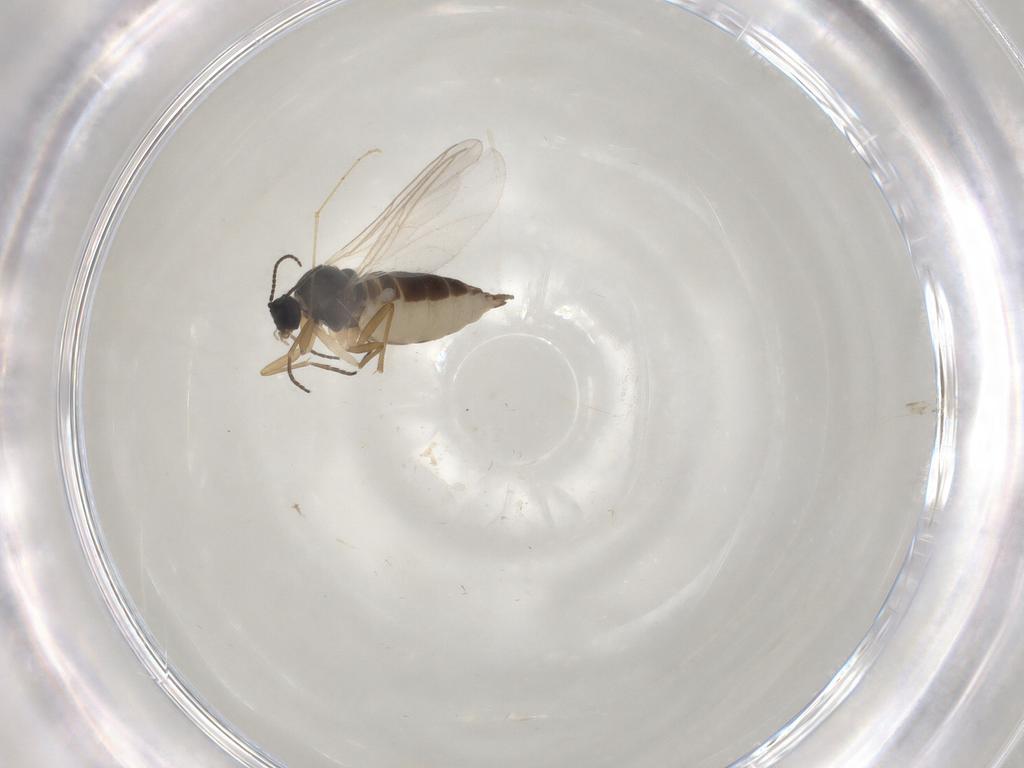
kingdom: Animalia
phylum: Arthropoda
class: Insecta
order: Diptera
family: Sciaridae
